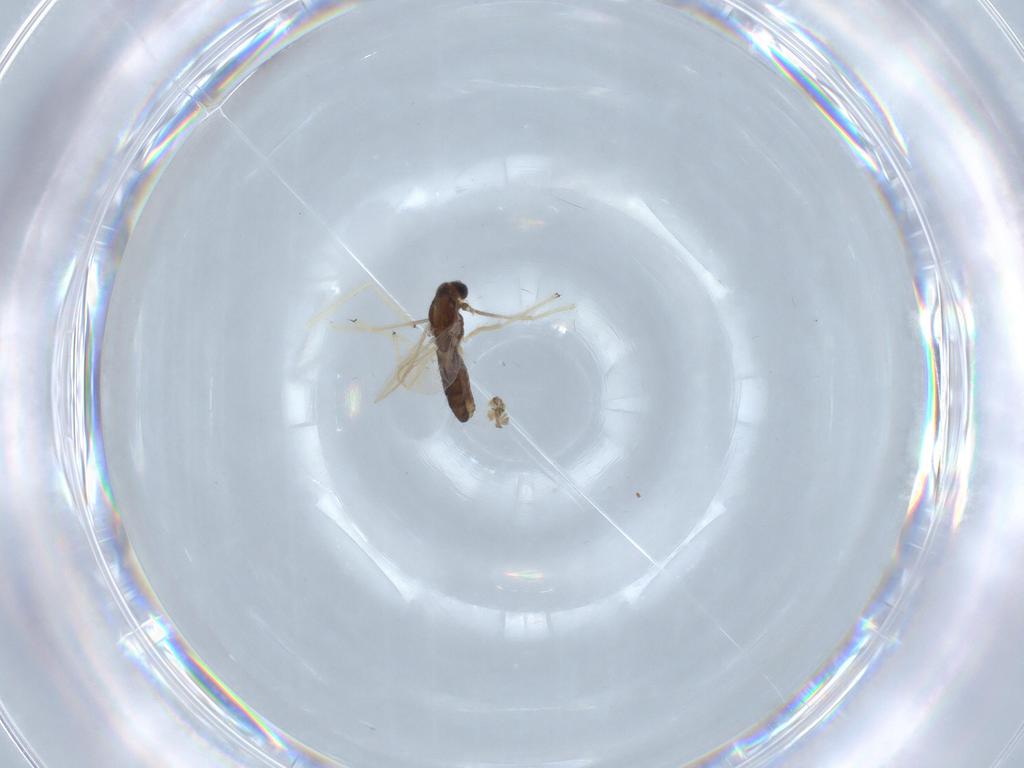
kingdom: Animalia
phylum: Arthropoda
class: Insecta
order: Diptera
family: Chironomidae
